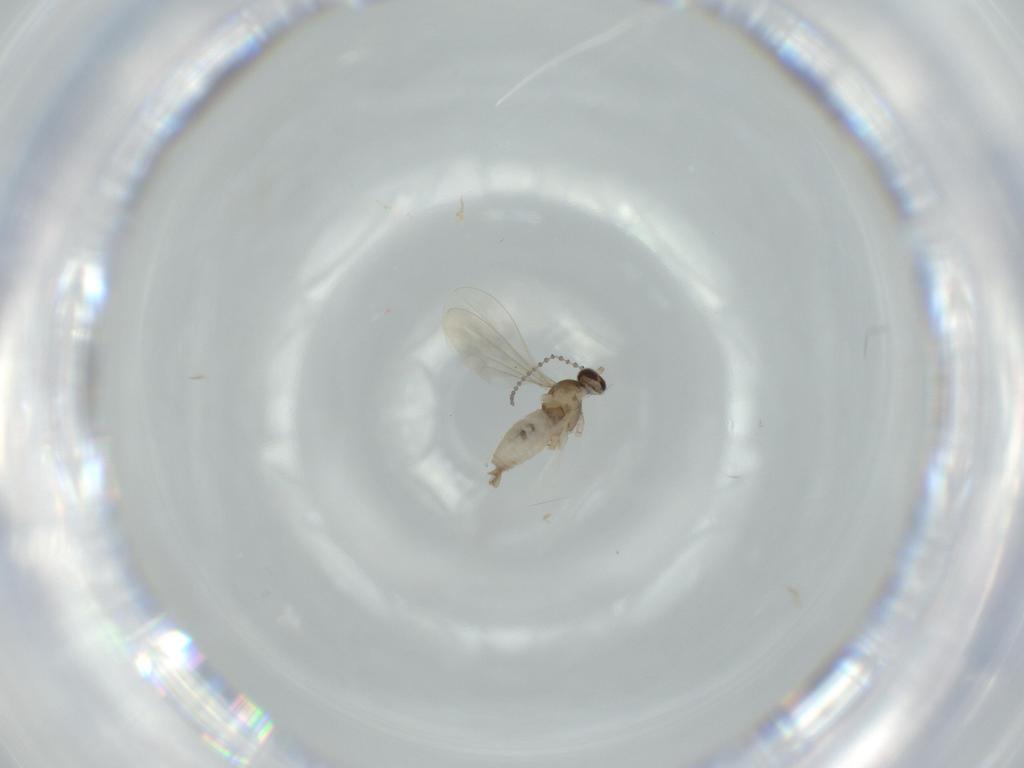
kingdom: Animalia
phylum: Arthropoda
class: Insecta
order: Diptera
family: Cecidomyiidae
